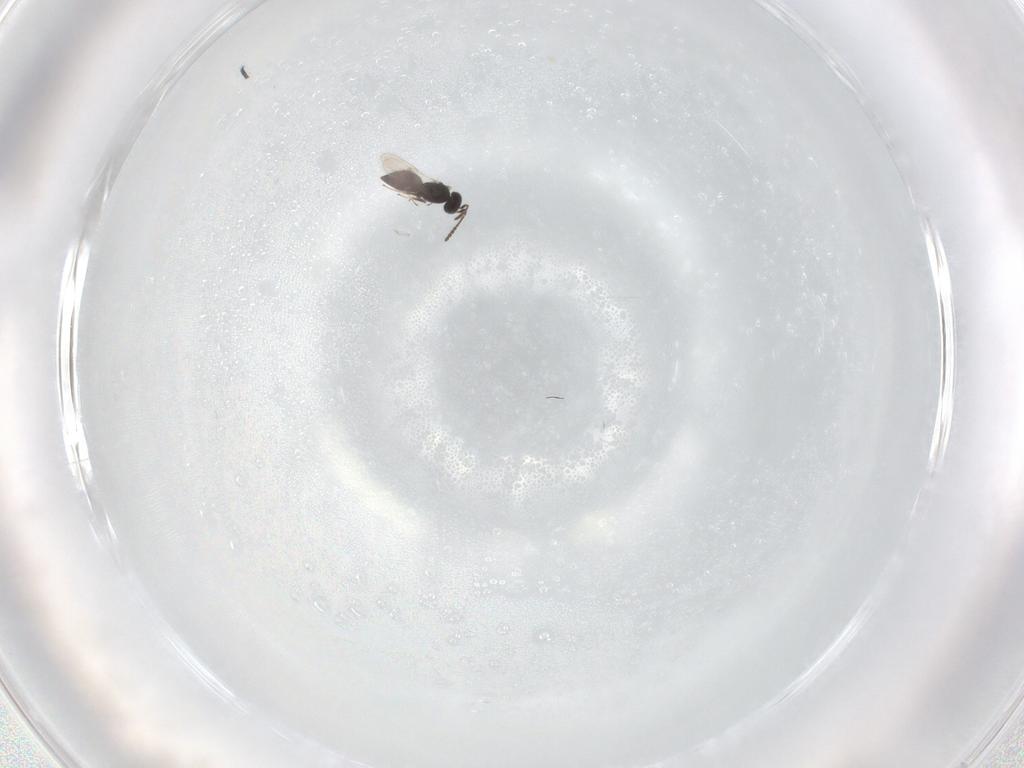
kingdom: Animalia
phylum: Arthropoda
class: Insecta
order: Hymenoptera
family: Scelionidae
